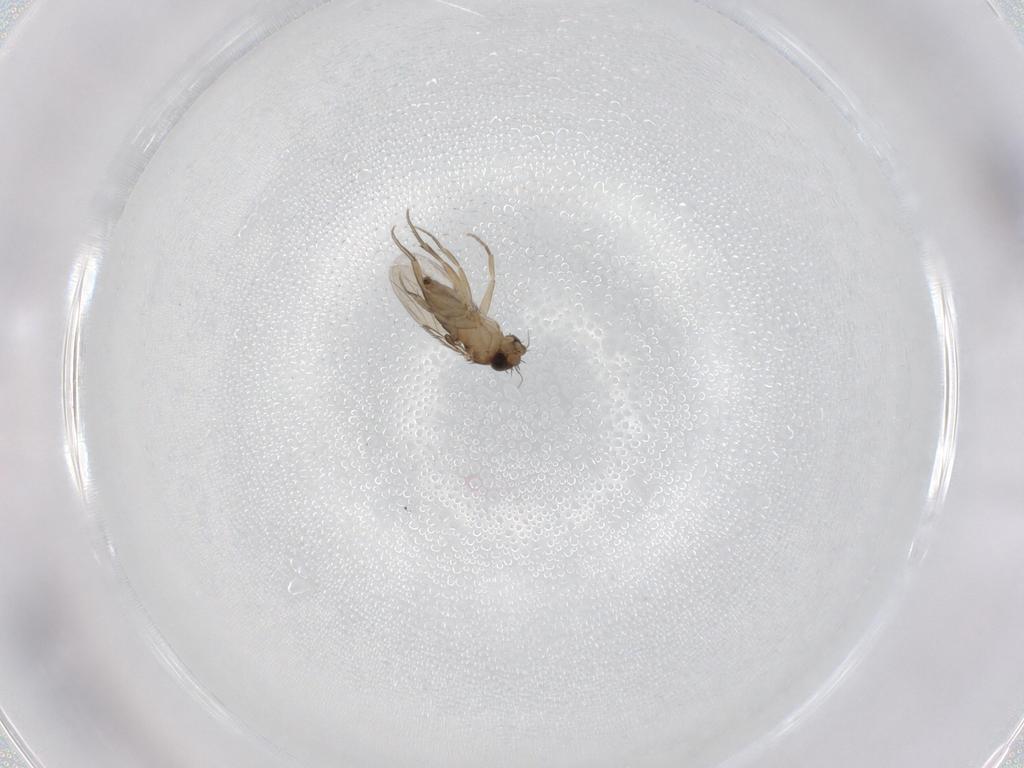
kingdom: Animalia
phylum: Arthropoda
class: Insecta
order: Diptera
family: Phoridae
